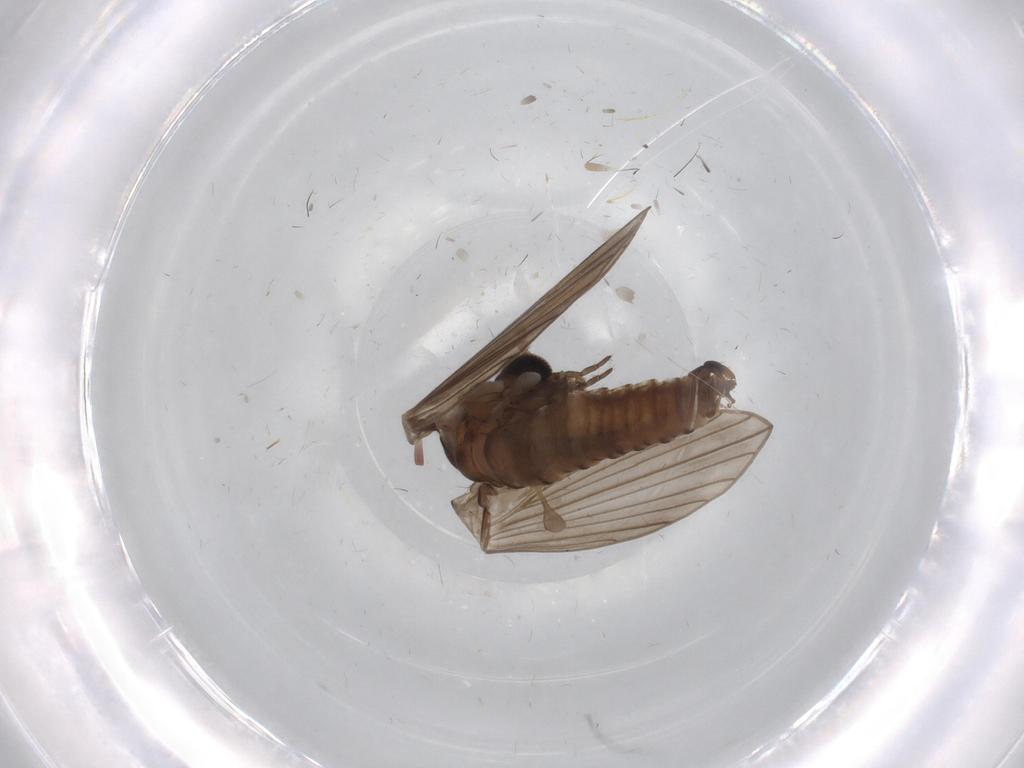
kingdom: Animalia
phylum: Arthropoda
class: Insecta
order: Diptera
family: Psychodidae
